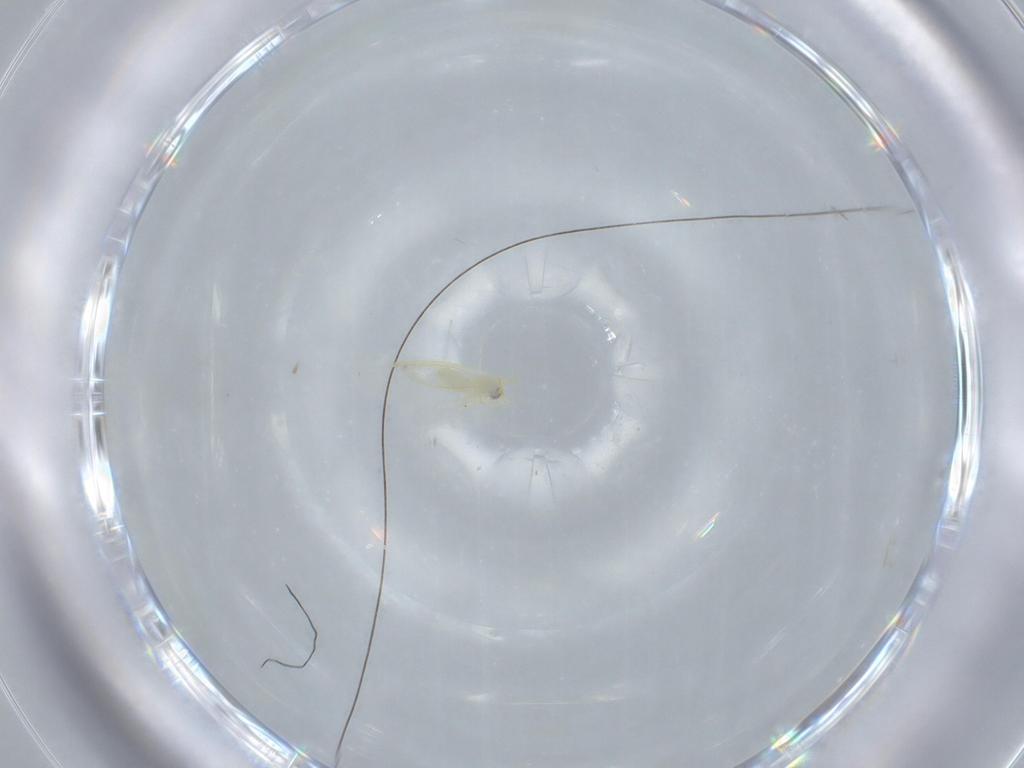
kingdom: Animalia
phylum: Arthropoda
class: Insecta
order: Hemiptera
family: Aleyrodidae
